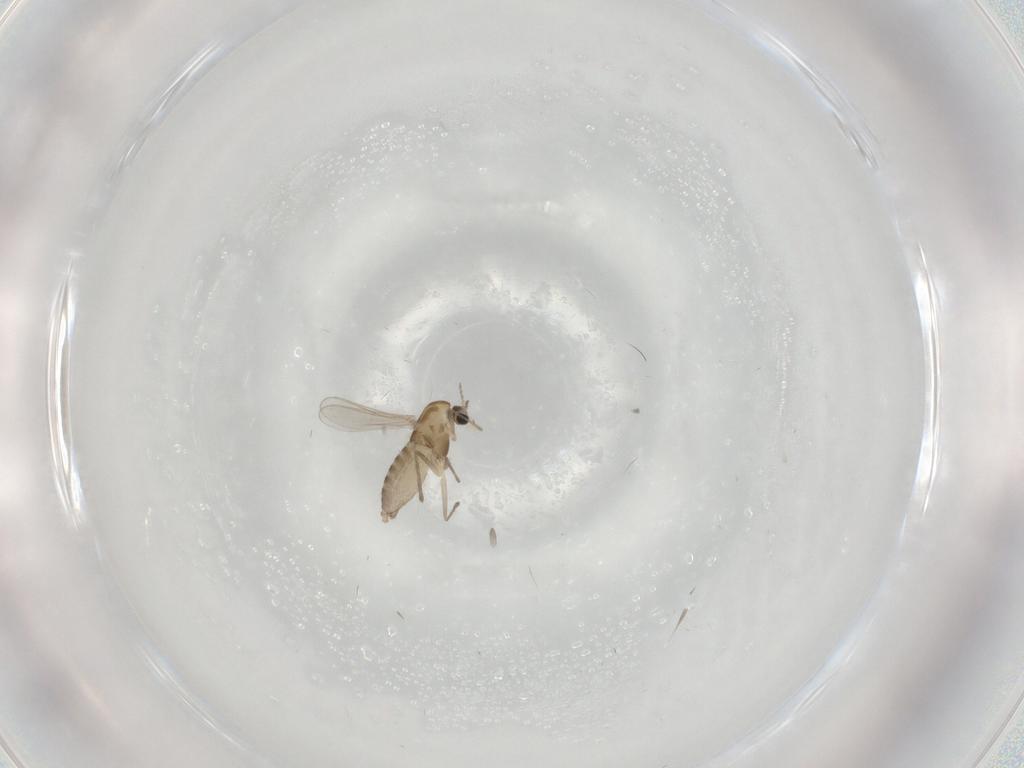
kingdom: Animalia
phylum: Arthropoda
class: Insecta
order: Diptera
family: Chironomidae
